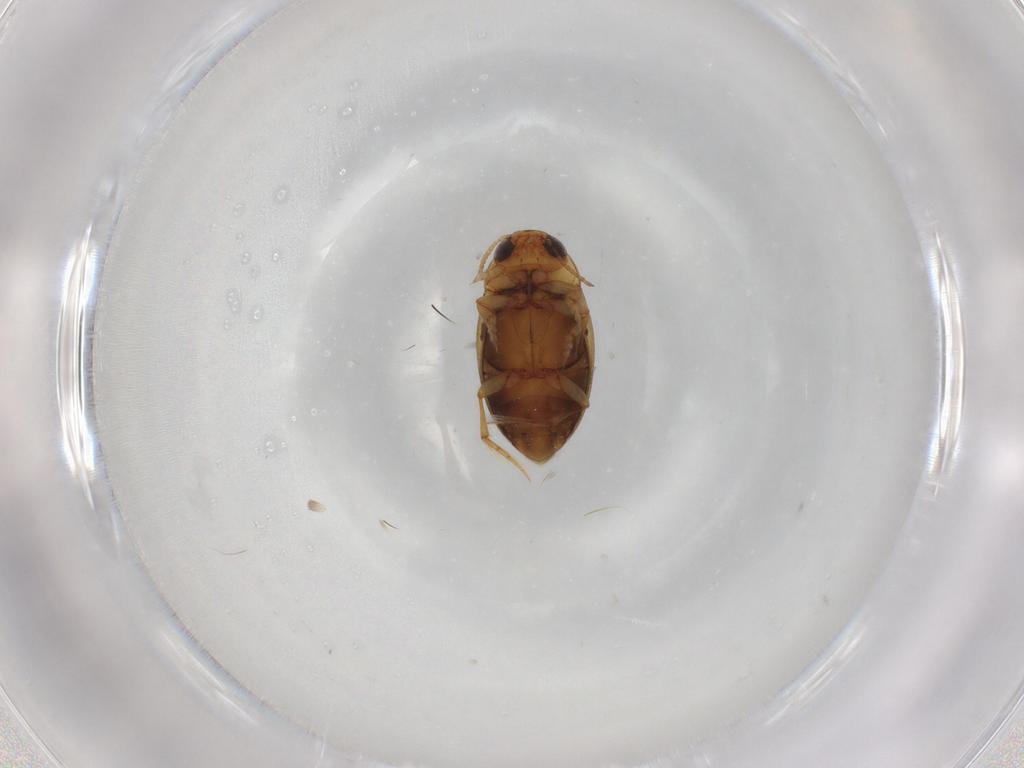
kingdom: Animalia
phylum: Arthropoda
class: Insecta
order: Coleoptera
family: Dytiscidae
